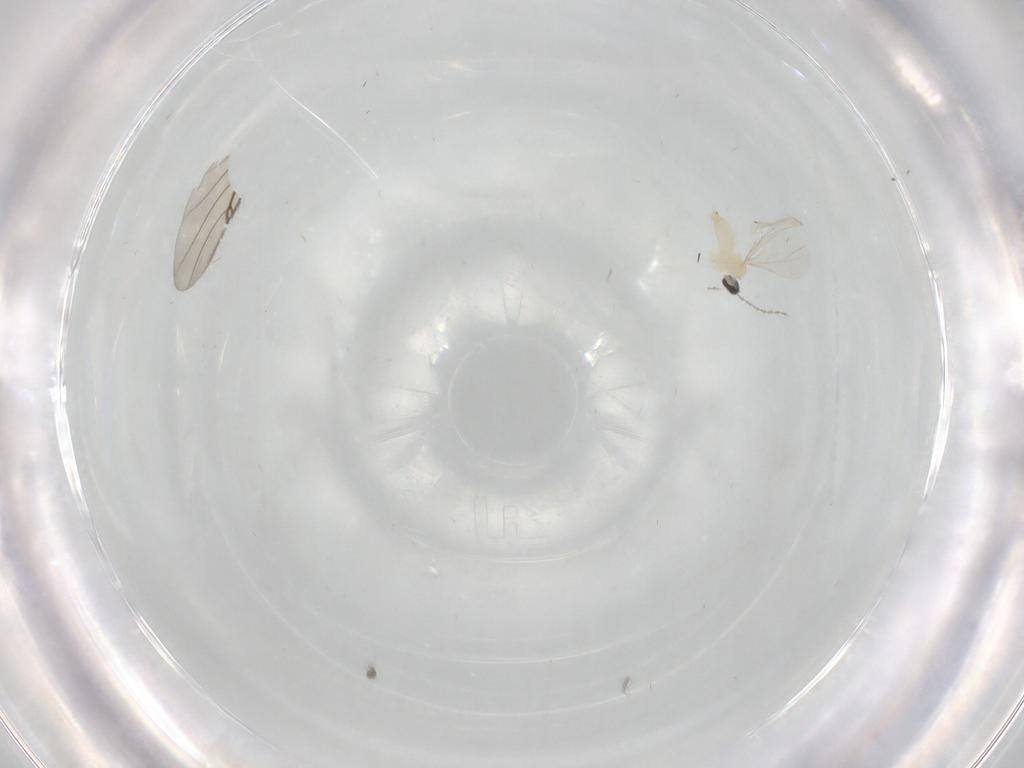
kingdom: Animalia
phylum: Arthropoda
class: Insecta
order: Diptera
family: Cecidomyiidae
